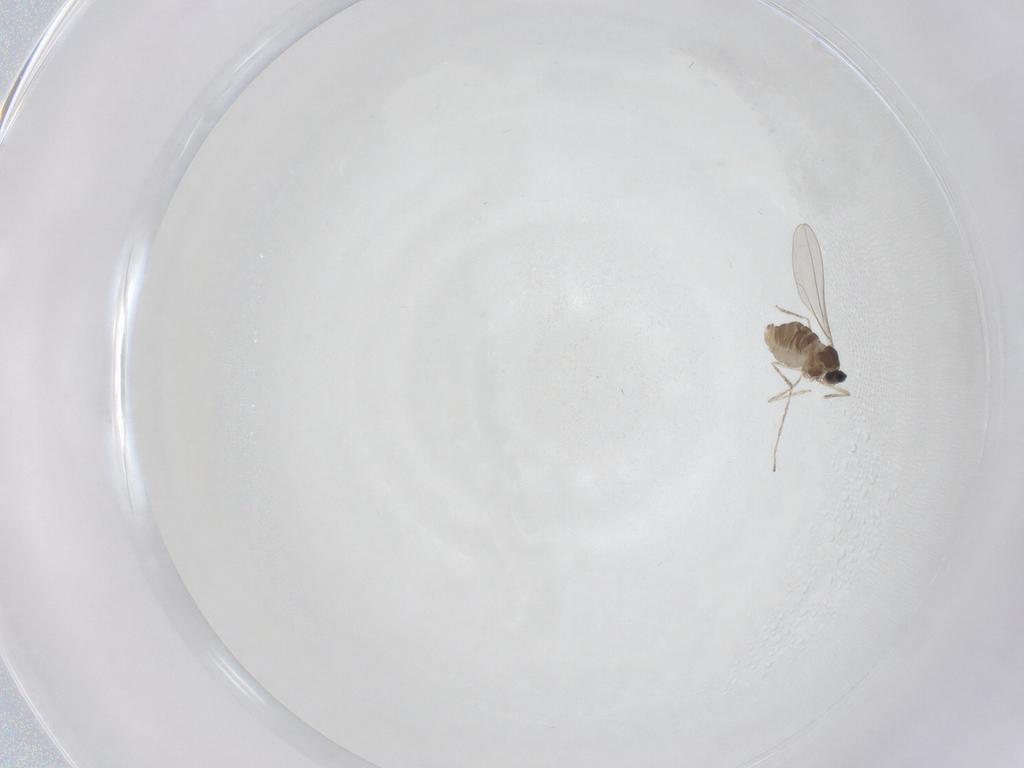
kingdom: Animalia
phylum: Arthropoda
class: Insecta
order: Diptera
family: Cecidomyiidae
